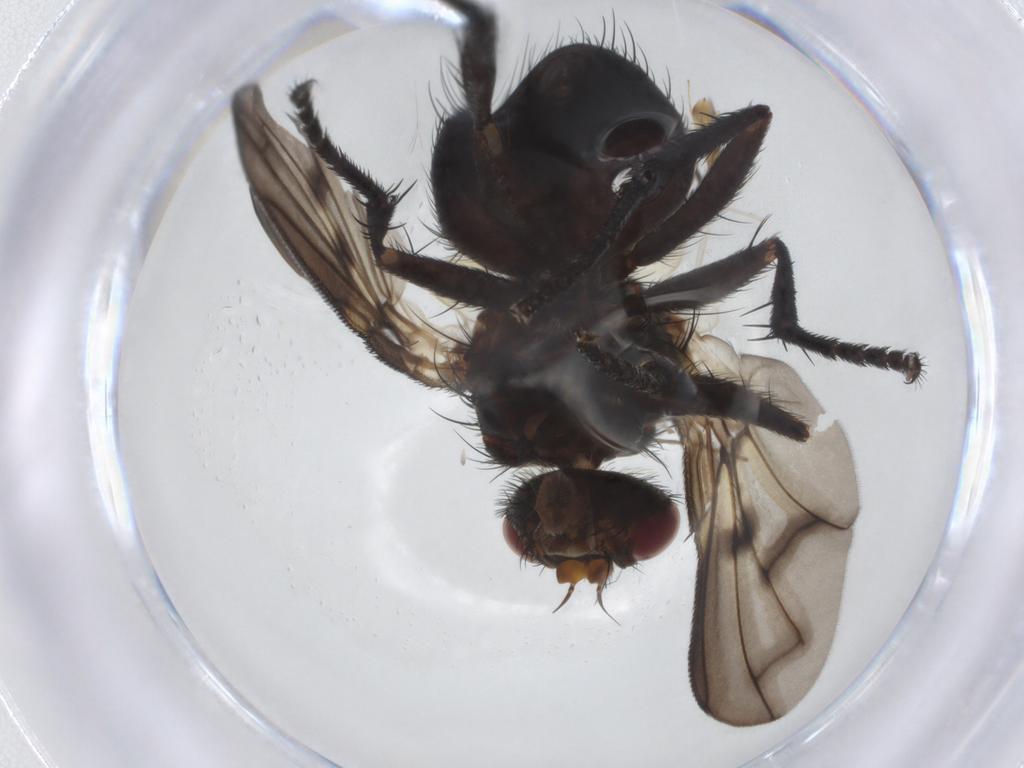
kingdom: Animalia
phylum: Arthropoda
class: Insecta
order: Diptera
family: Chironomidae
